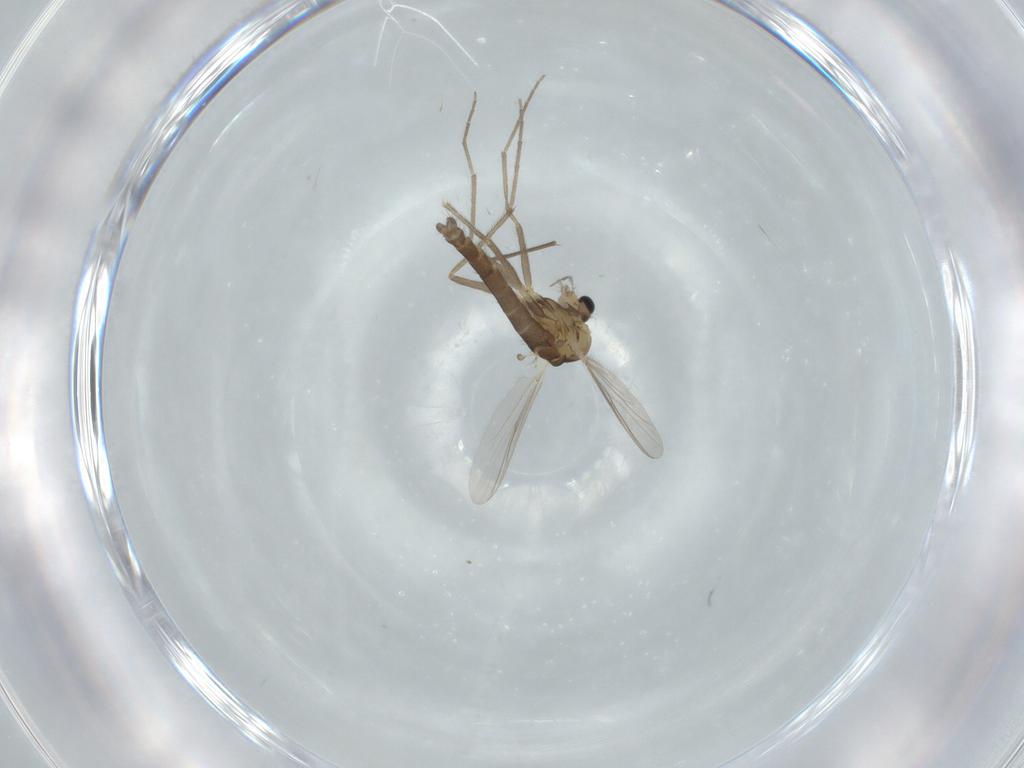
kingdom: Animalia
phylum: Arthropoda
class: Insecta
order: Diptera
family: Chironomidae
